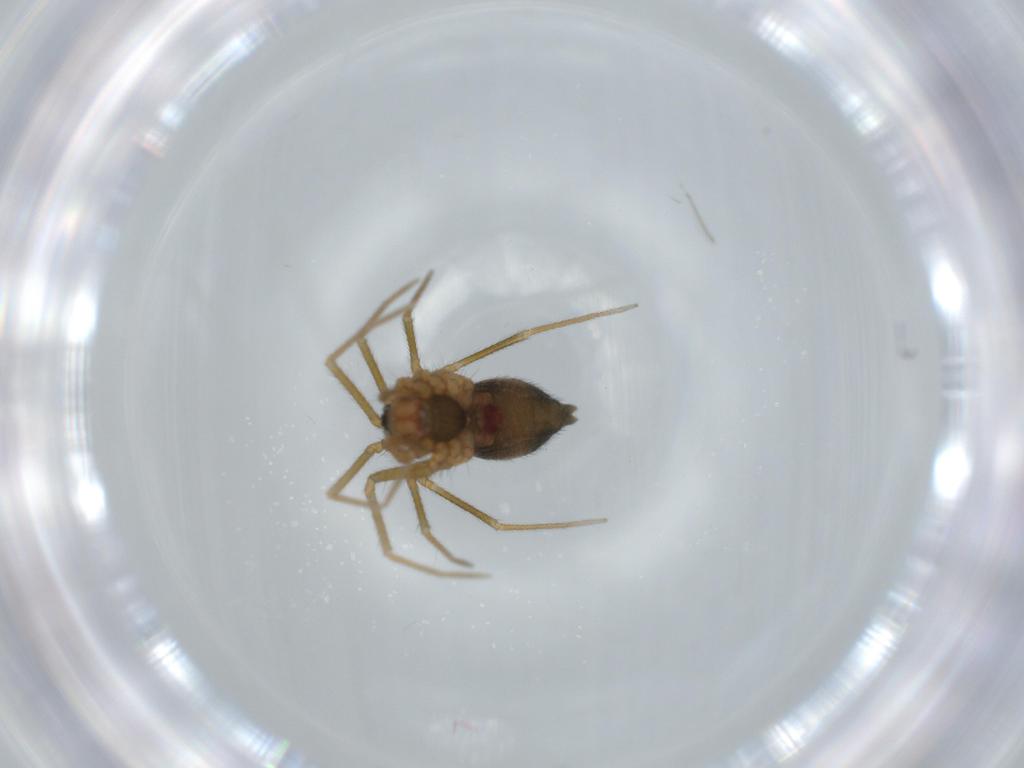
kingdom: Animalia
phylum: Arthropoda
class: Arachnida
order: Araneae
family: Linyphiidae
